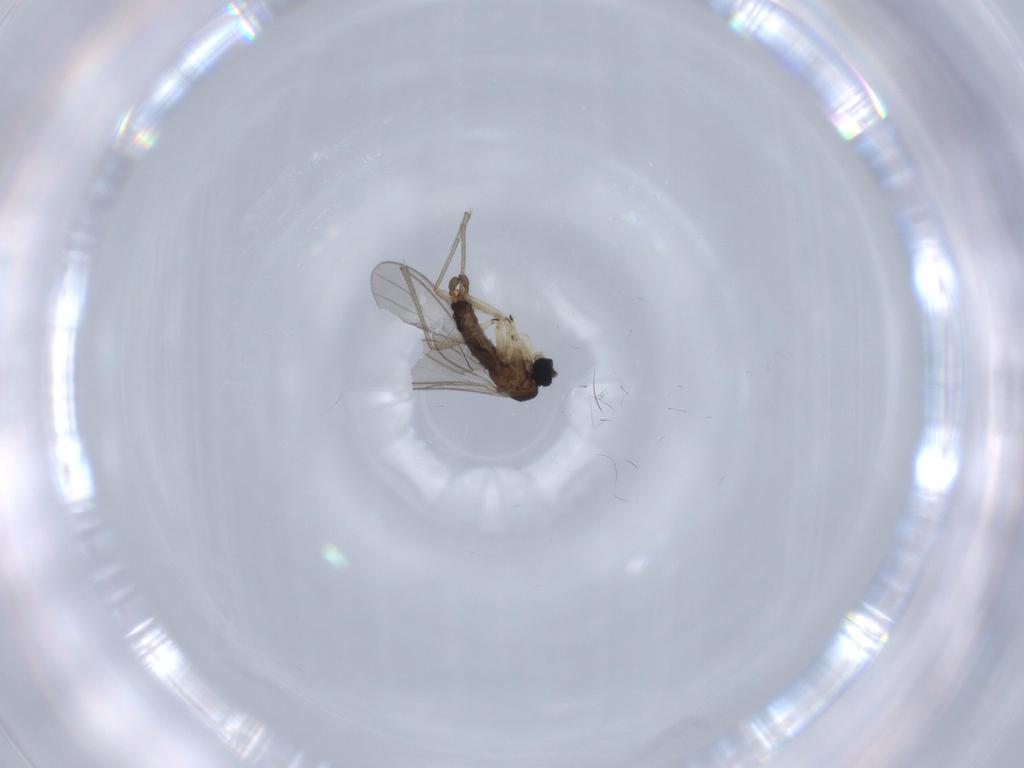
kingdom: Animalia
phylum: Arthropoda
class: Insecta
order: Diptera
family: Sciaridae
